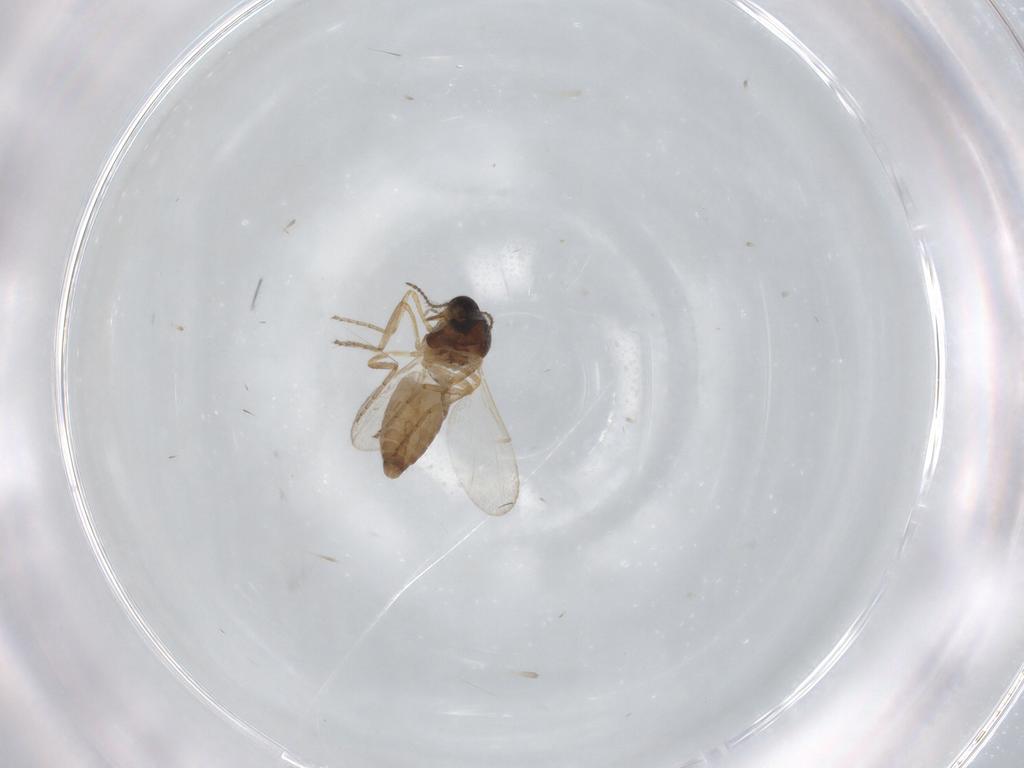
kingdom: Animalia
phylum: Arthropoda
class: Insecta
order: Diptera
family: Ceratopogonidae
